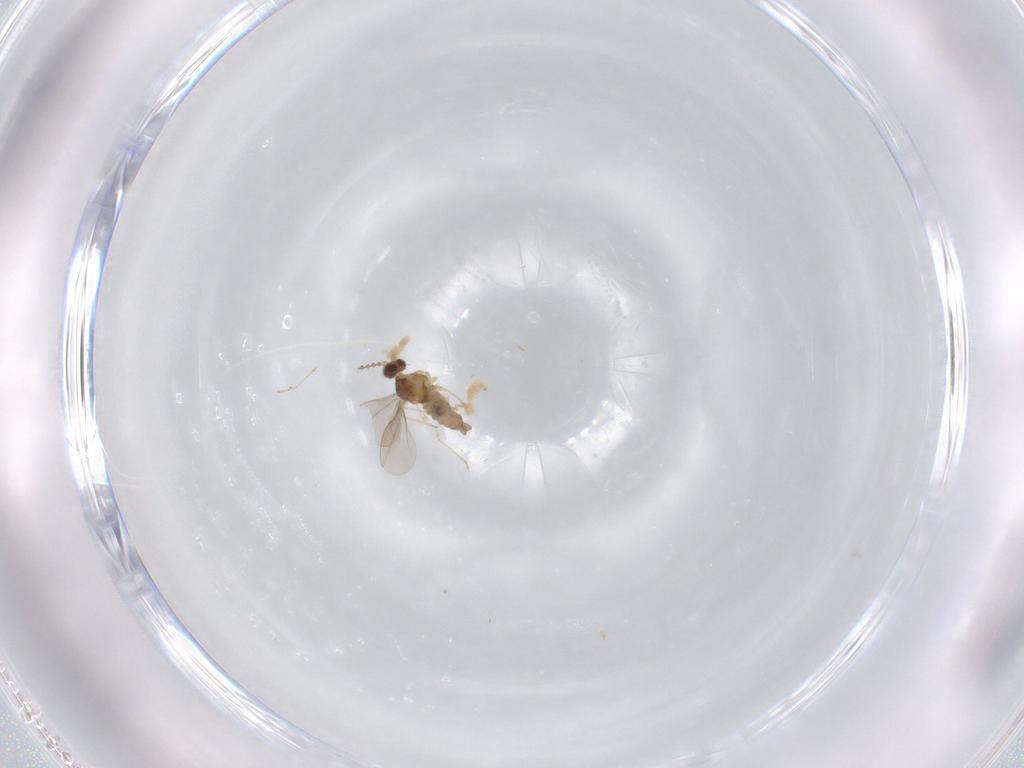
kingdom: Animalia
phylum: Arthropoda
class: Insecta
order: Diptera
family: Cecidomyiidae
